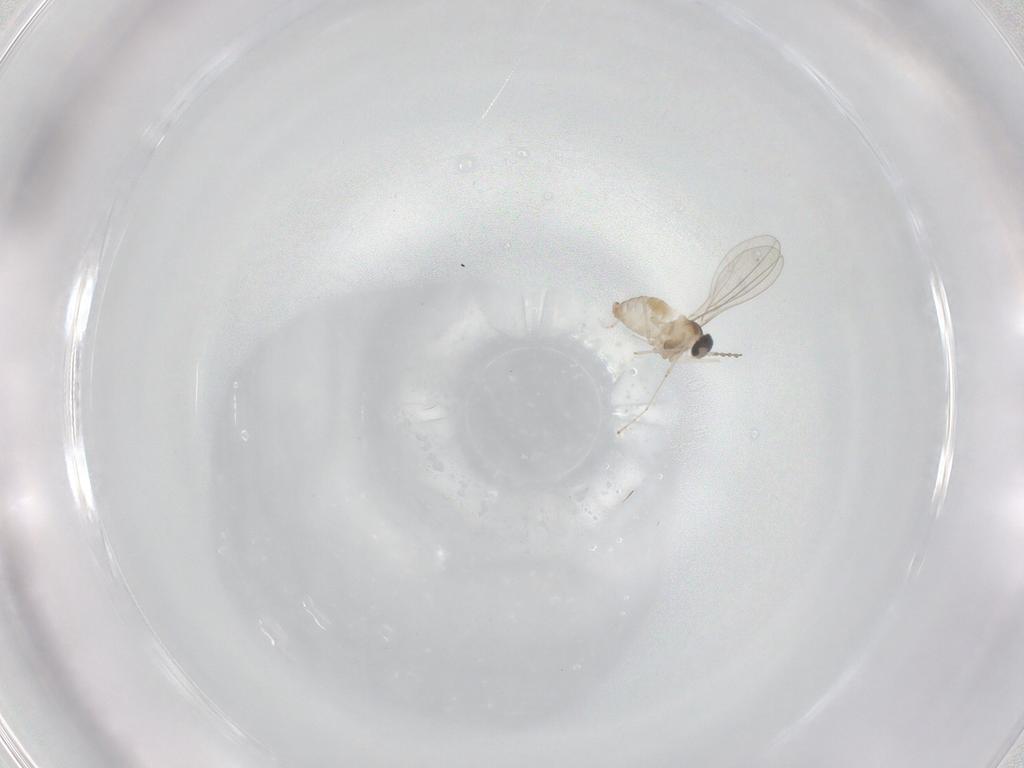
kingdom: Animalia
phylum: Arthropoda
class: Insecta
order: Diptera
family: Cecidomyiidae
